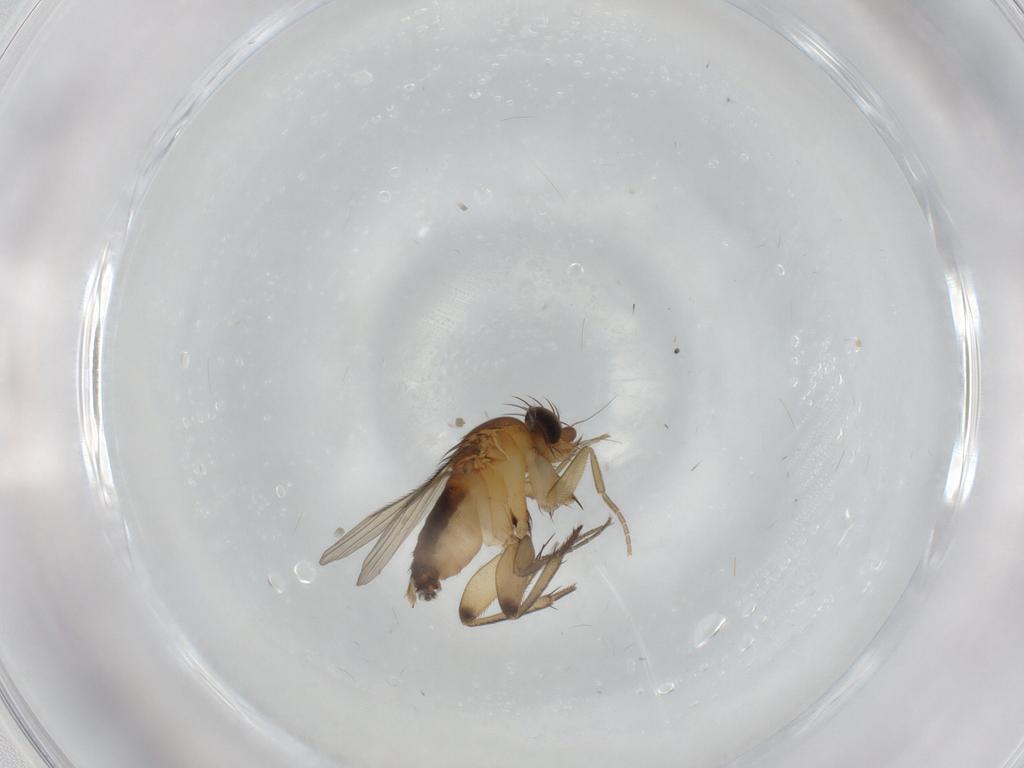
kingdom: Animalia
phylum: Arthropoda
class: Insecta
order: Diptera
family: Phoridae
